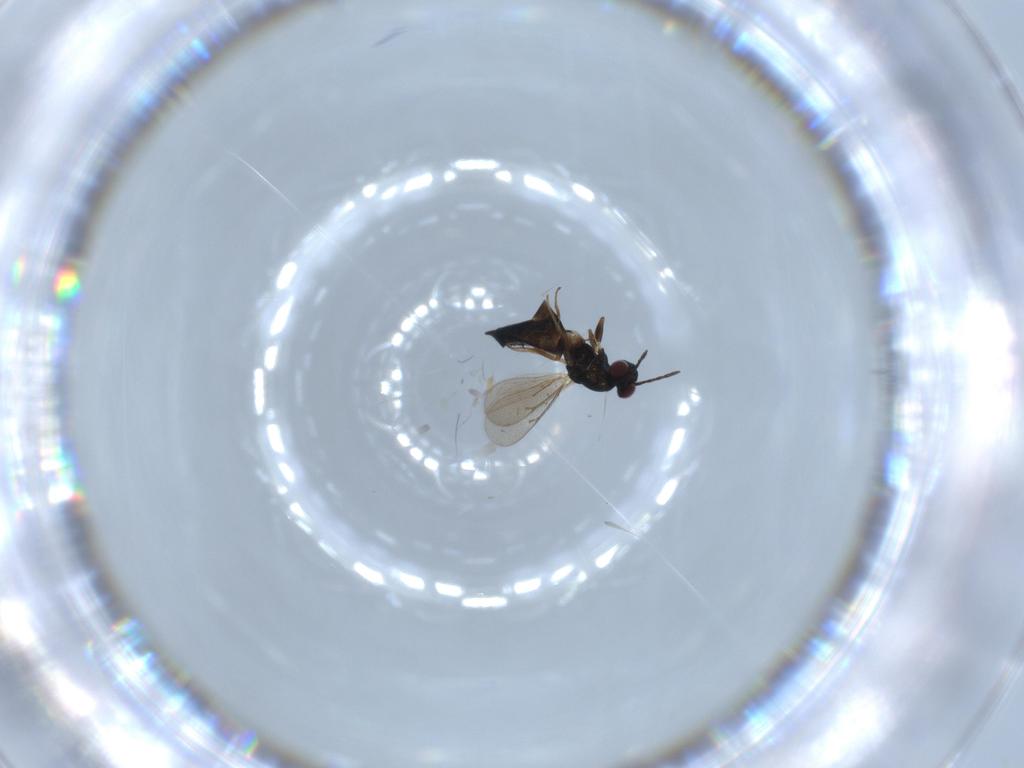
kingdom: Animalia
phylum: Arthropoda
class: Insecta
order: Hymenoptera
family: Eulophidae
